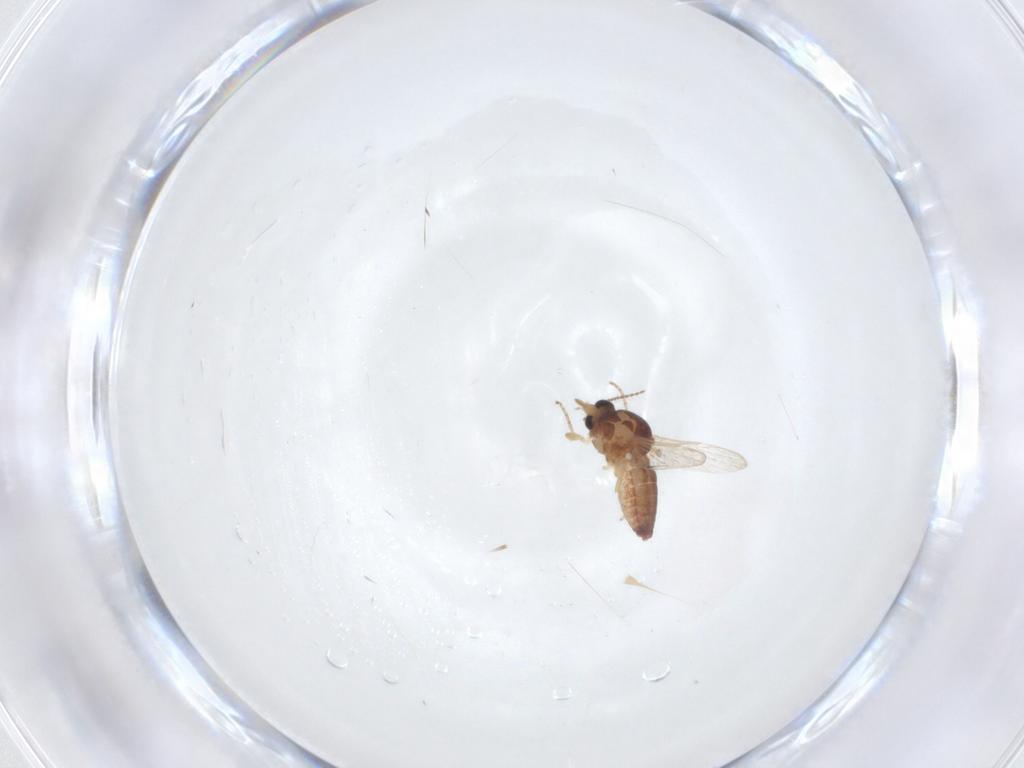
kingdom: Animalia
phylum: Arthropoda
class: Insecta
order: Diptera
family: Ceratopogonidae
